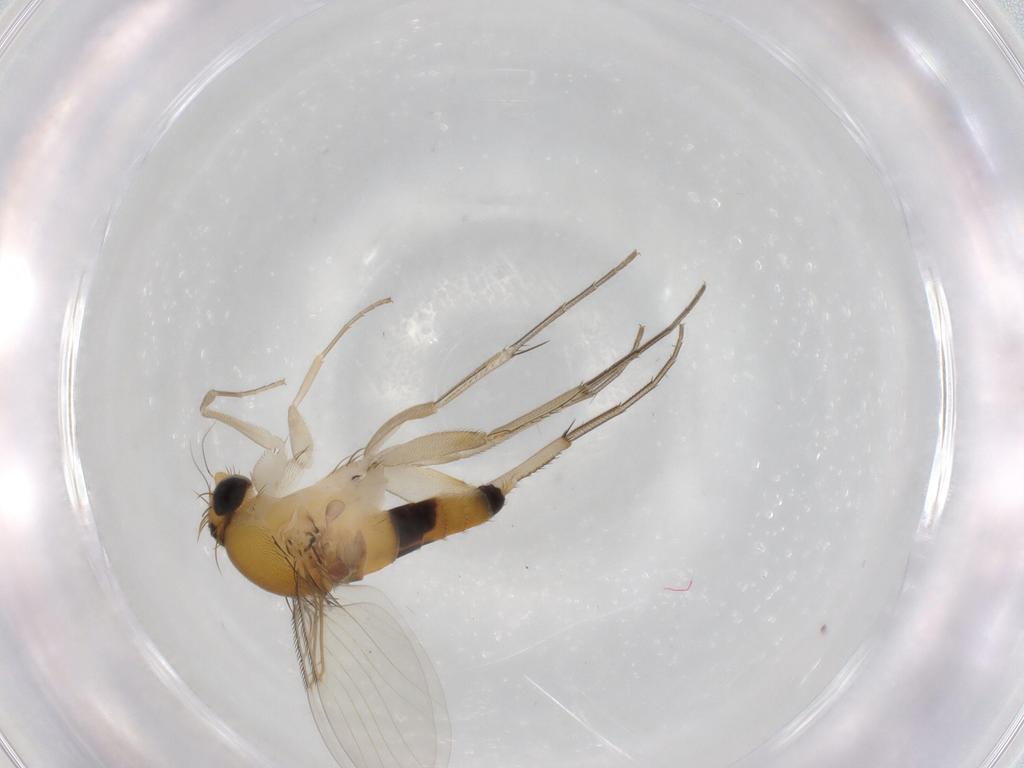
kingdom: Animalia
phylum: Arthropoda
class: Insecta
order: Diptera
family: Phoridae
